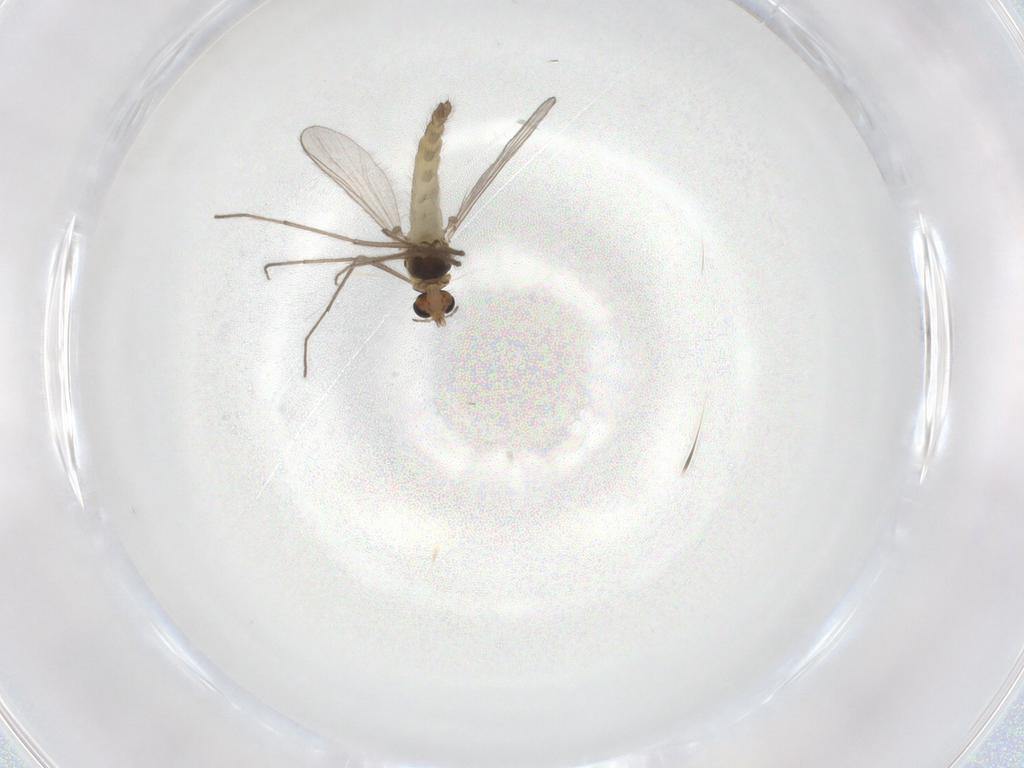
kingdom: Animalia
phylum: Arthropoda
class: Insecta
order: Diptera
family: Chironomidae
